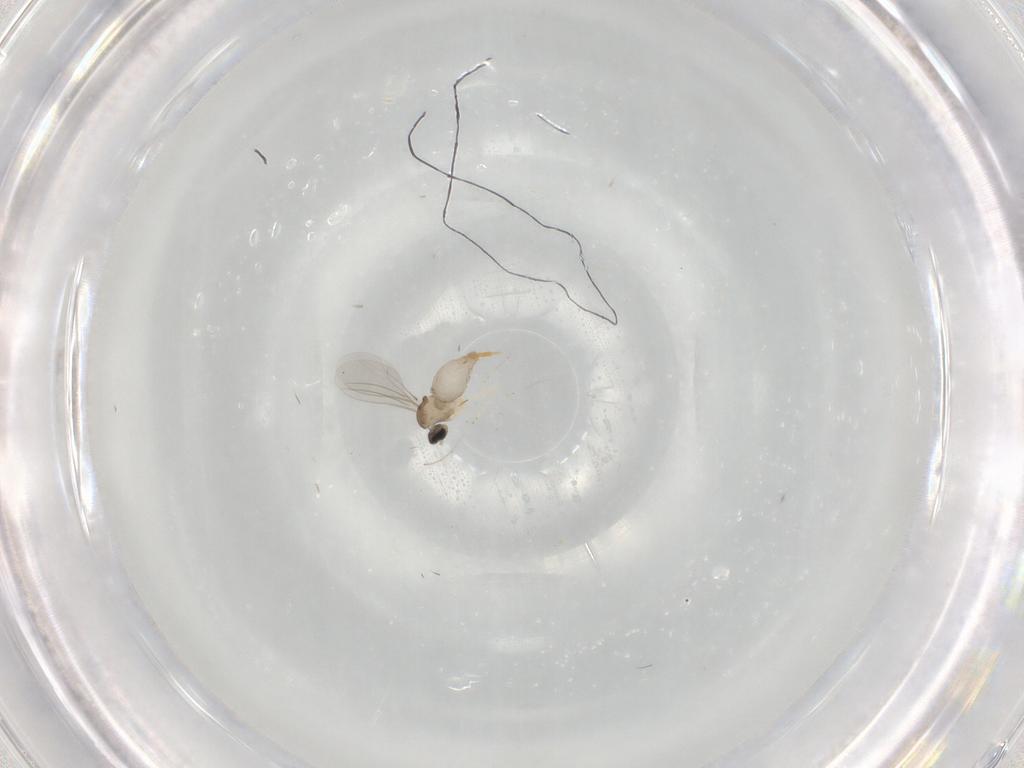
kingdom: Animalia
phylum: Arthropoda
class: Insecta
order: Diptera
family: Cecidomyiidae
